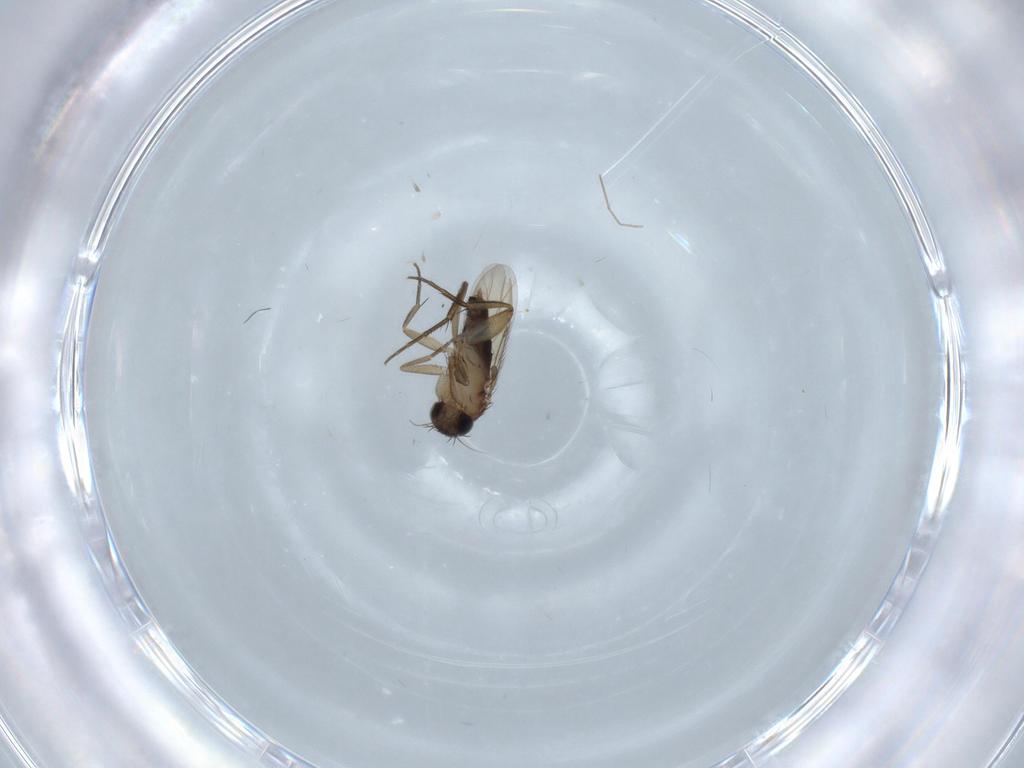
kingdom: Animalia
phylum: Arthropoda
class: Insecta
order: Diptera
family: Phoridae
